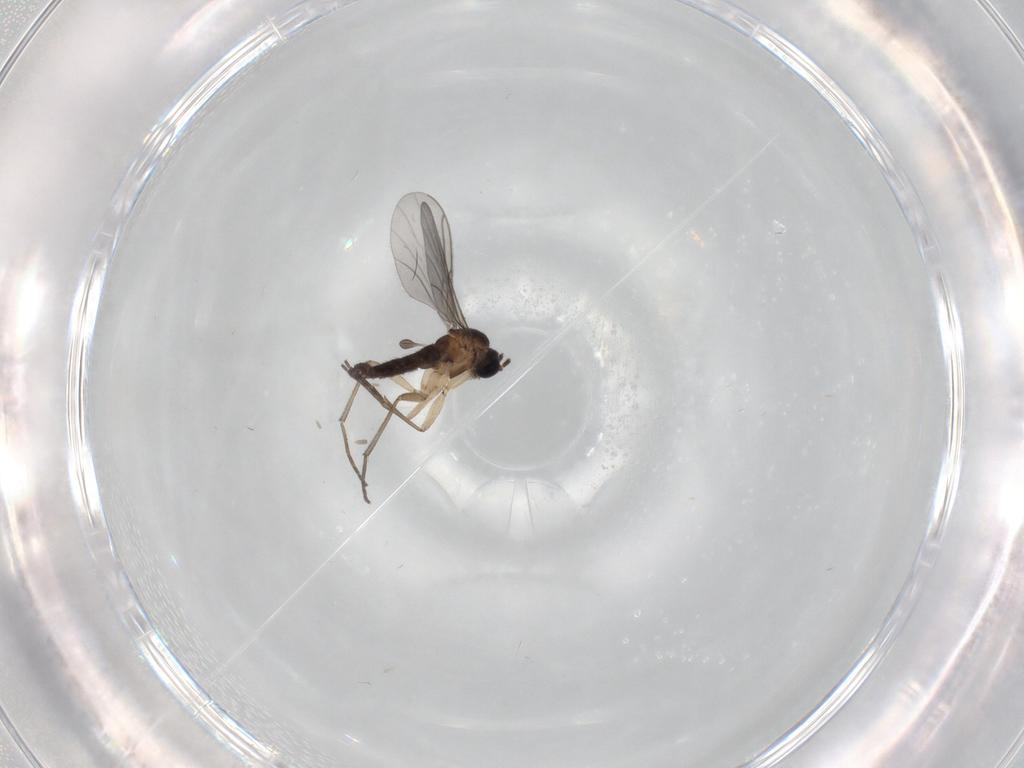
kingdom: Animalia
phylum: Arthropoda
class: Insecta
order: Diptera
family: Sciaridae
